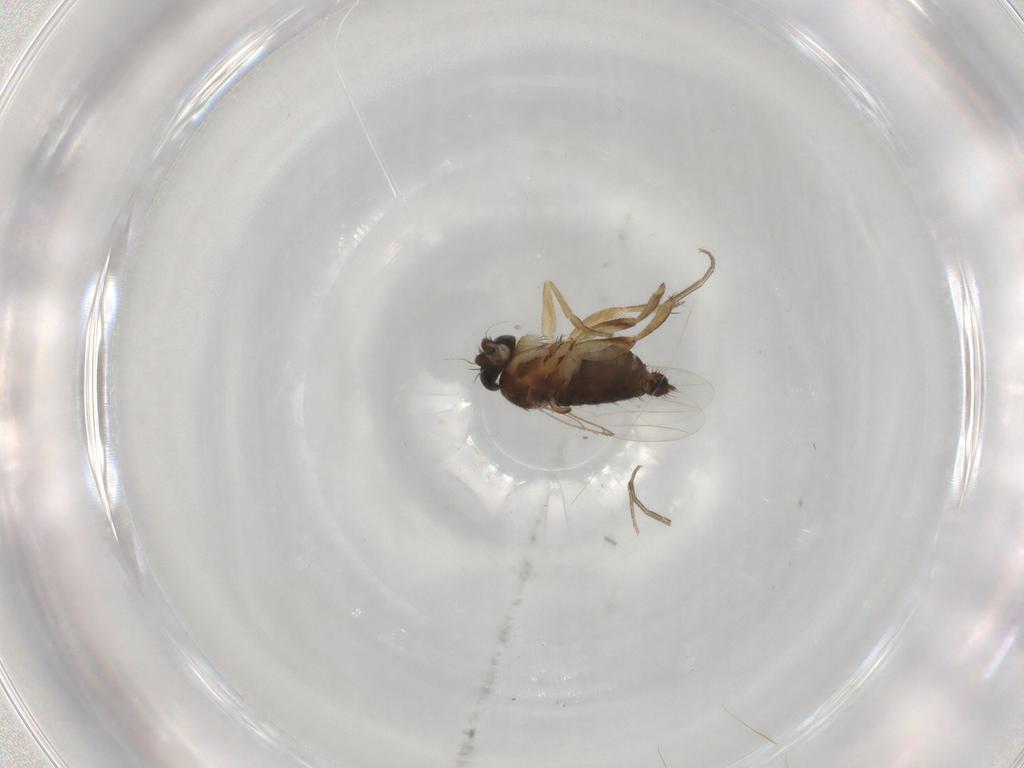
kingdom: Animalia
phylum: Arthropoda
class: Insecta
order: Diptera
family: Phoridae
